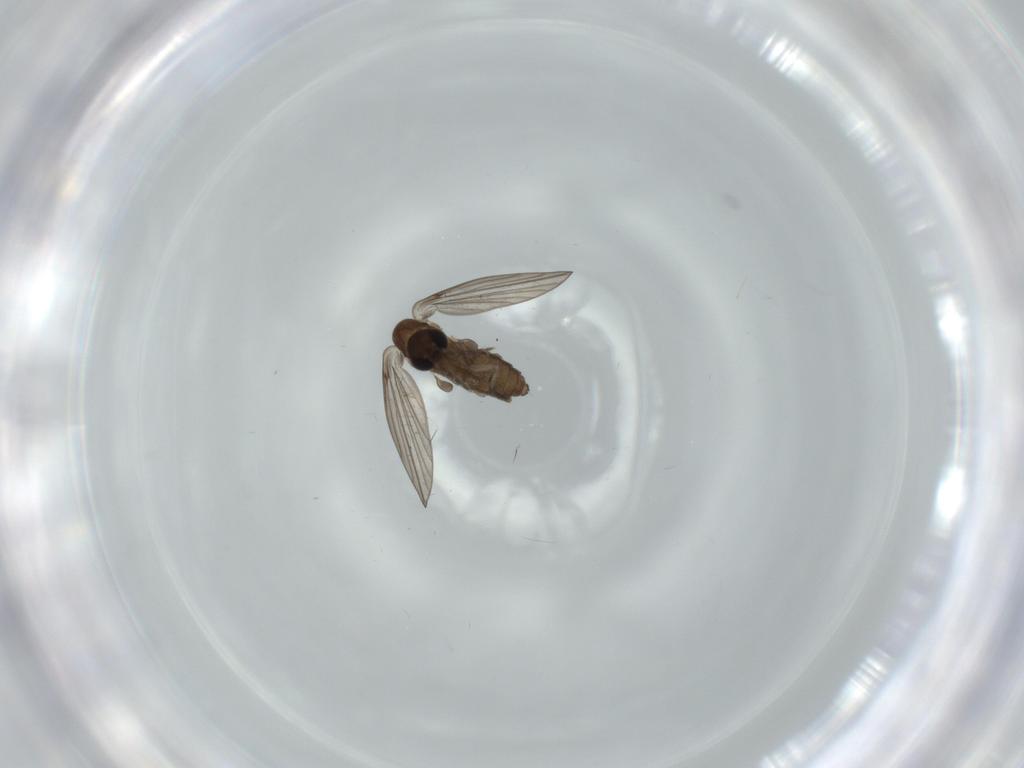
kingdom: Animalia
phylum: Arthropoda
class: Insecta
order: Diptera
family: Psychodidae
